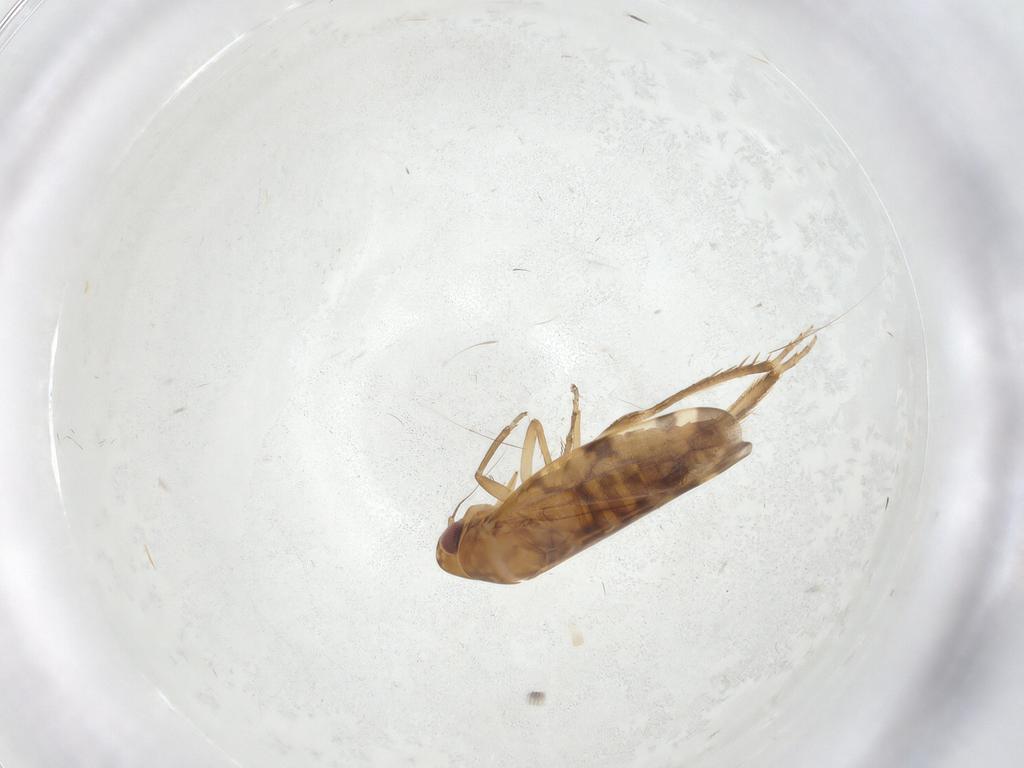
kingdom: Animalia
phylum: Arthropoda
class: Insecta
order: Hemiptera
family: Cicadellidae
